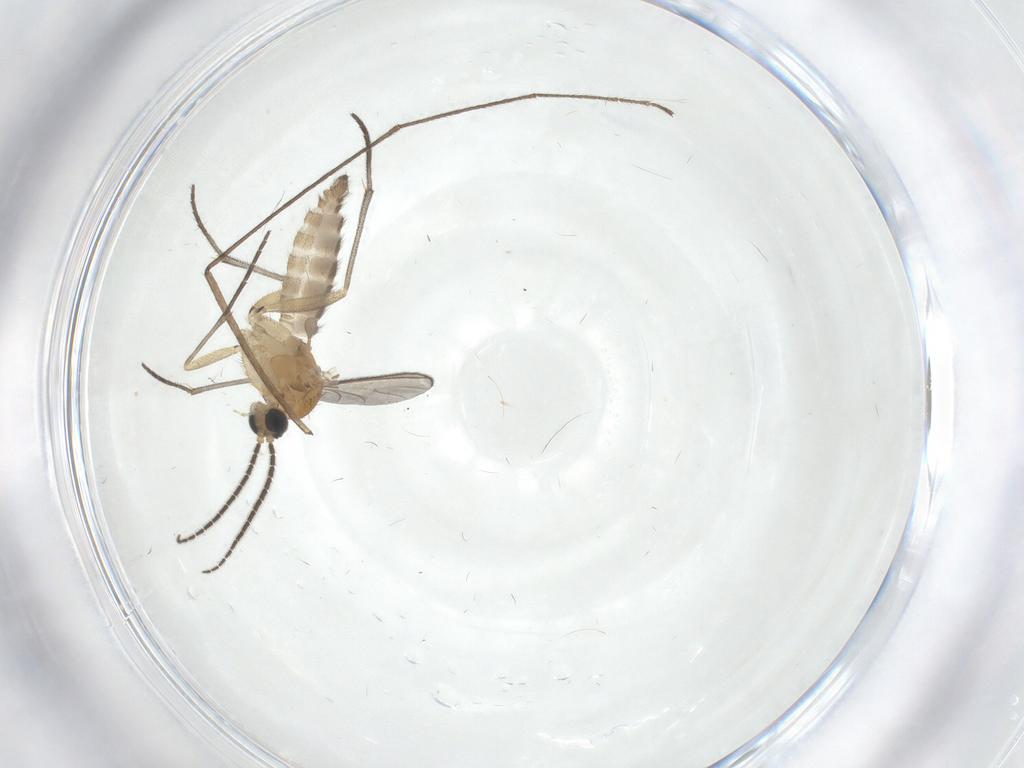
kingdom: Animalia
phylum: Arthropoda
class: Insecta
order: Diptera
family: Sciaridae
